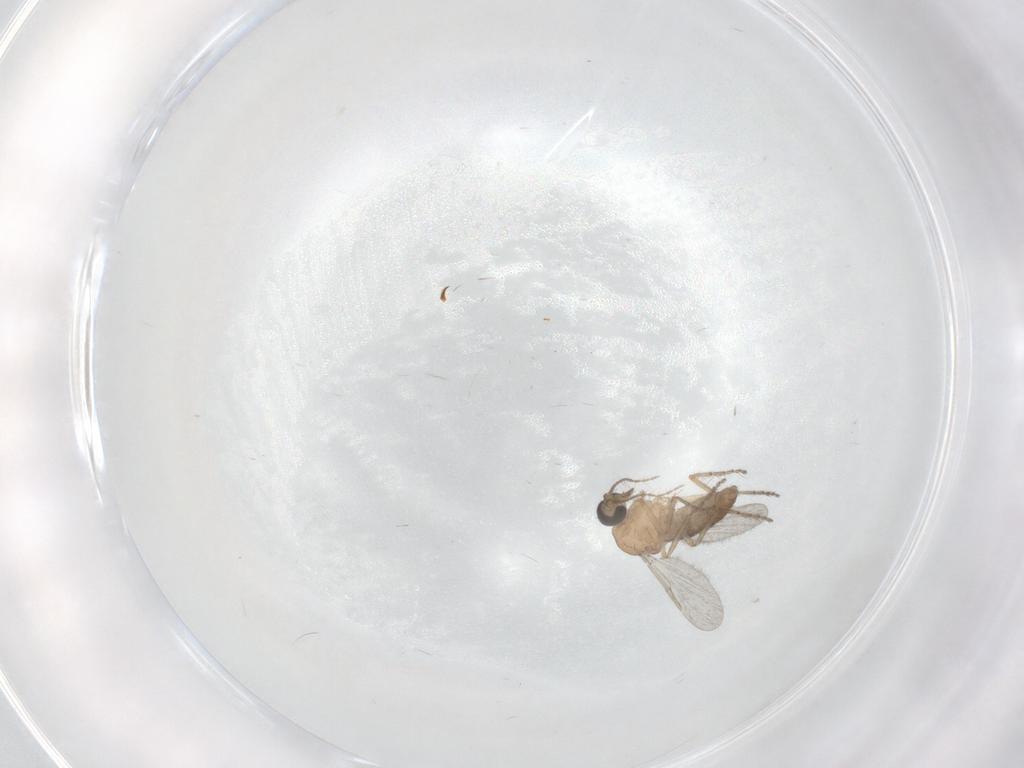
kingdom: Animalia
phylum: Arthropoda
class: Insecta
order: Diptera
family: Ceratopogonidae
